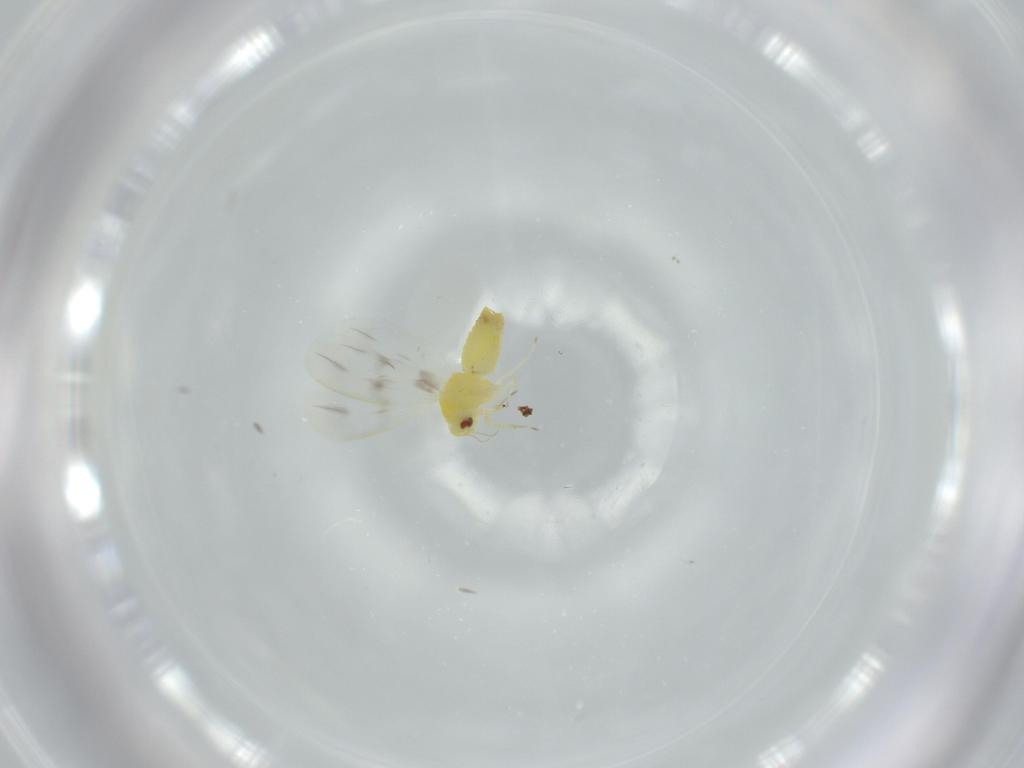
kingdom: Animalia
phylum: Arthropoda
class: Insecta
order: Hemiptera
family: Aleyrodidae
